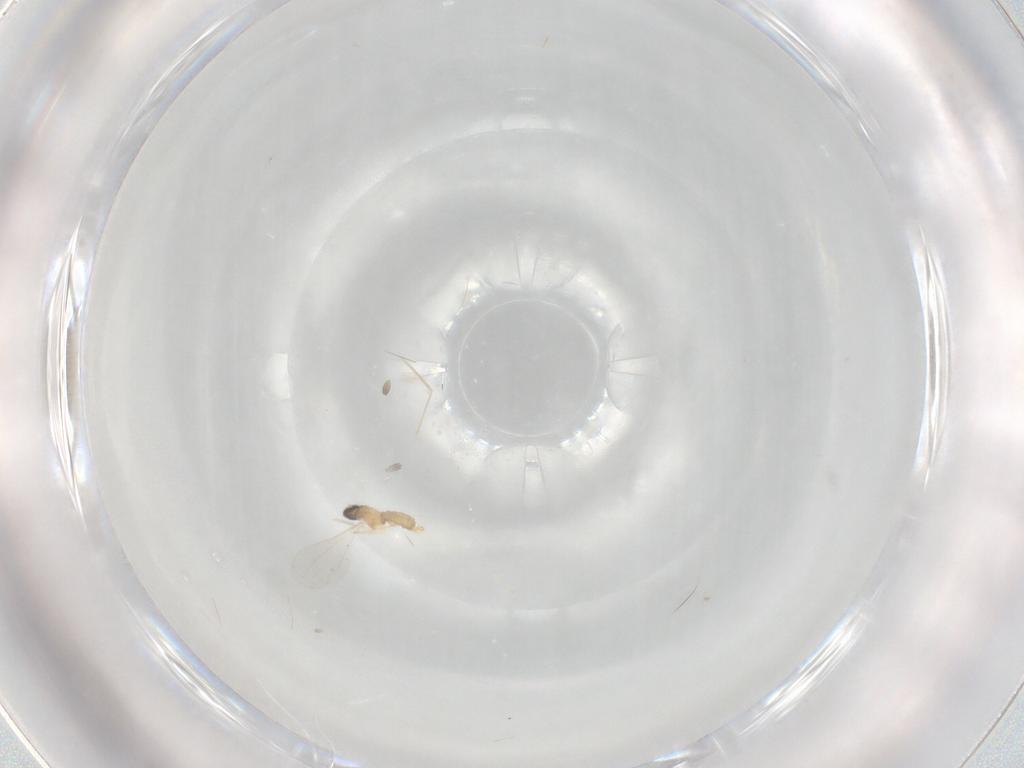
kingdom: Animalia
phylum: Arthropoda
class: Insecta
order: Diptera
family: Cecidomyiidae
